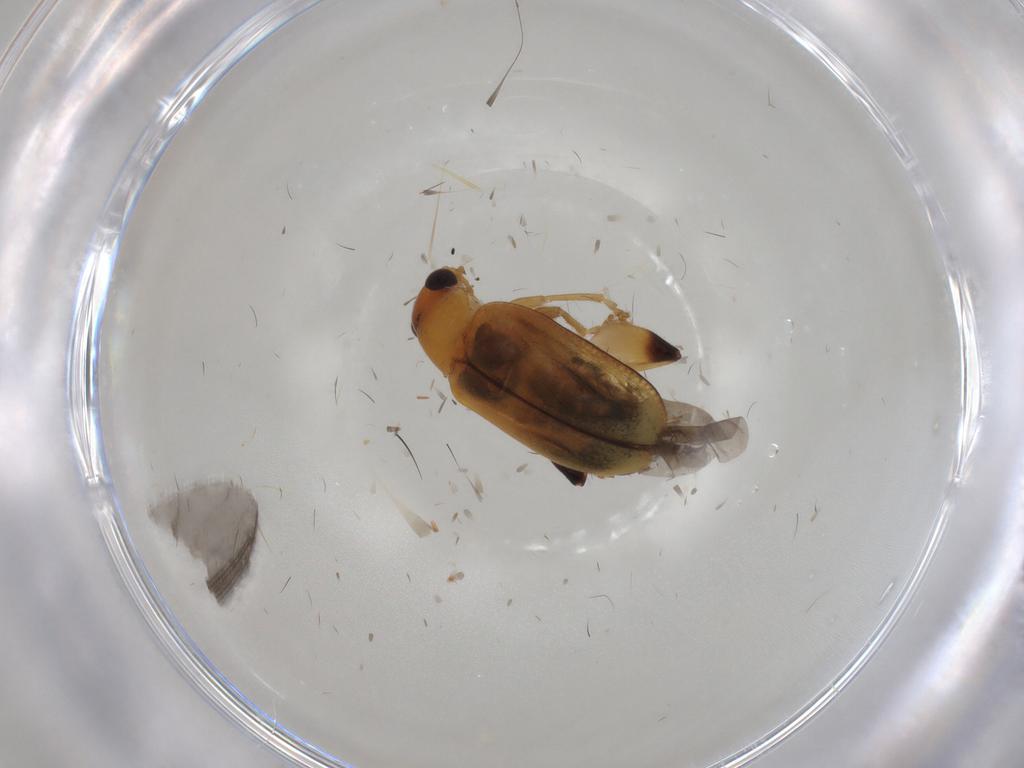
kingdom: Animalia
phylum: Arthropoda
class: Insecta
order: Coleoptera
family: Chrysomelidae
